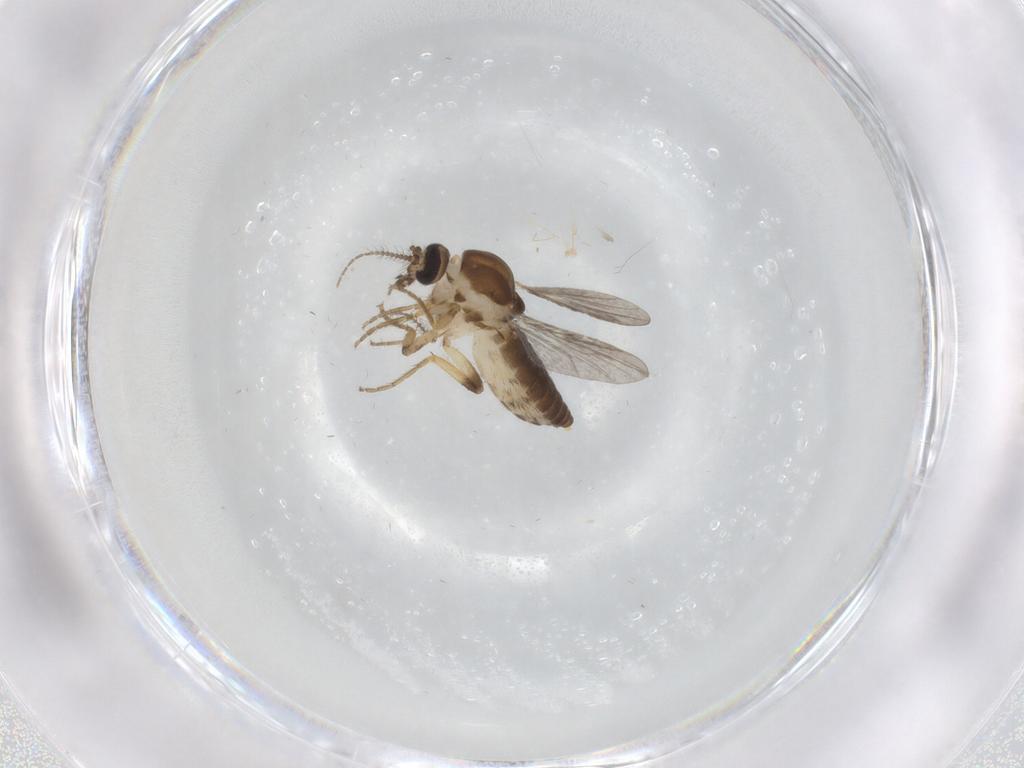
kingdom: Animalia
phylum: Arthropoda
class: Insecta
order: Diptera
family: Ceratopogonidae
